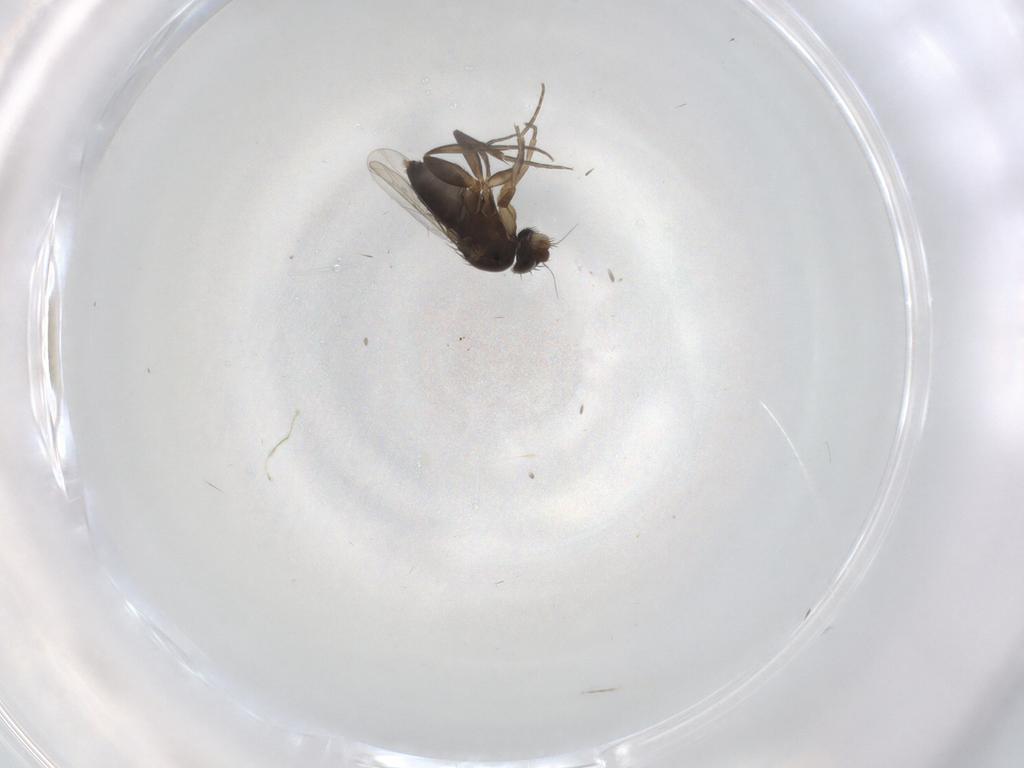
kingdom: Animalia
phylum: Arthropoda
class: Insecta
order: Diptera
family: Phoridae
